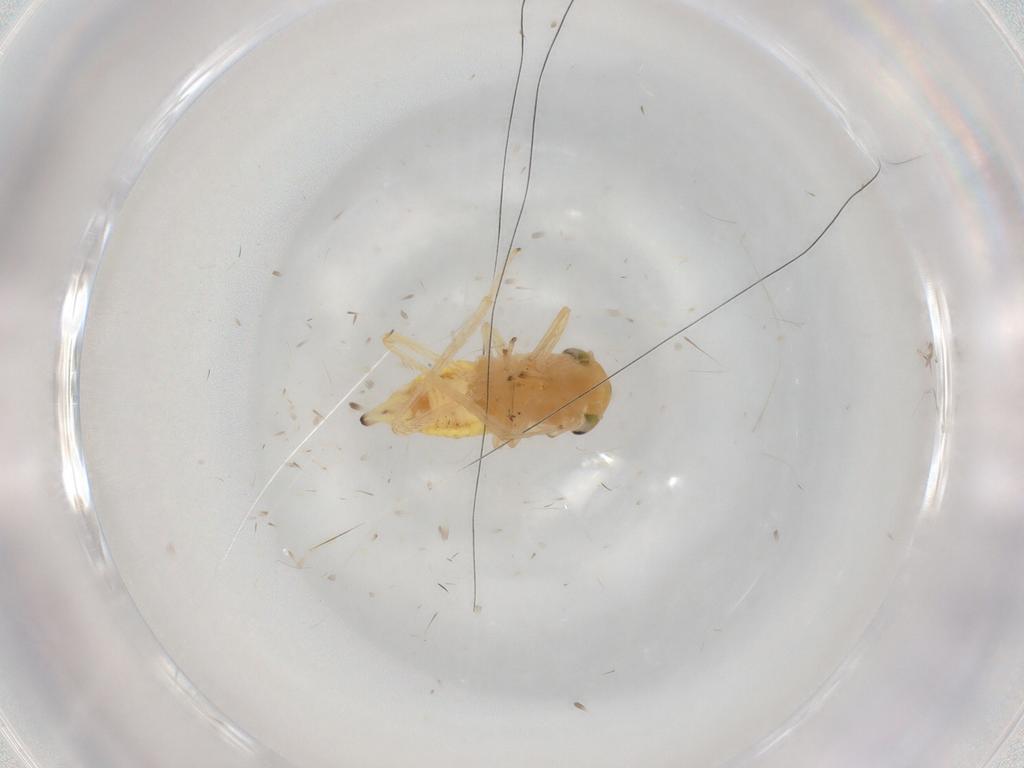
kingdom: Animalia
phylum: Arthropoda
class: Insecta
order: Hemiptera
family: Cicadellidae
